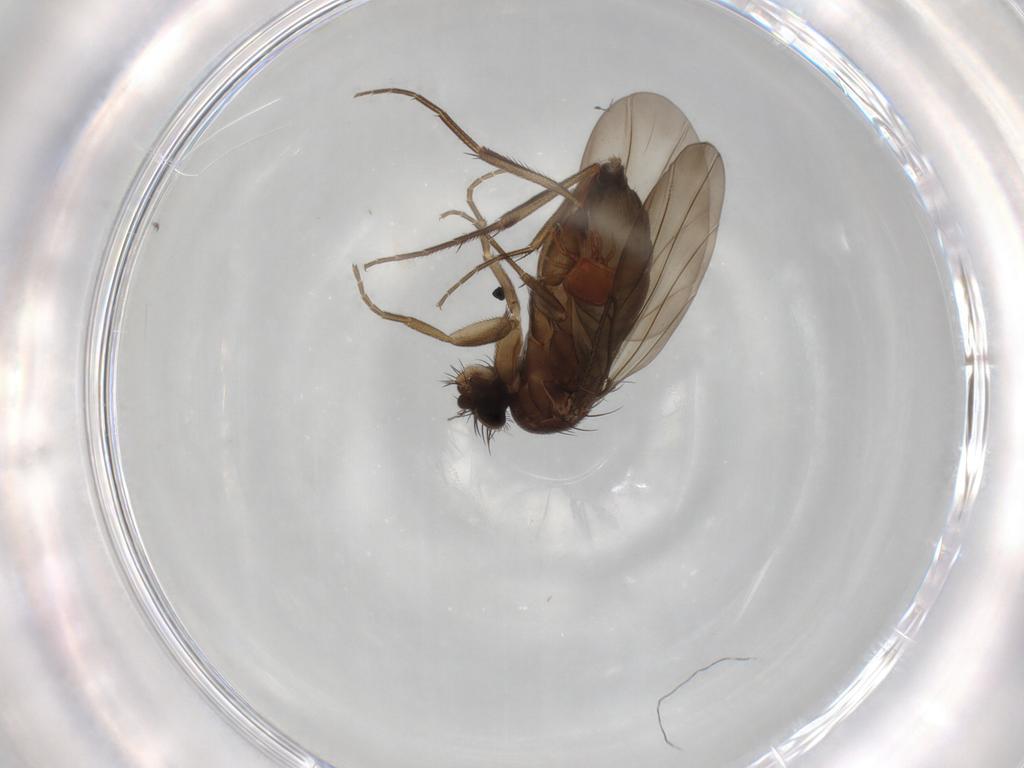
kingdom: Animalia
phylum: Arthropoda
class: Insecta
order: Diptera
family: Phoridae
